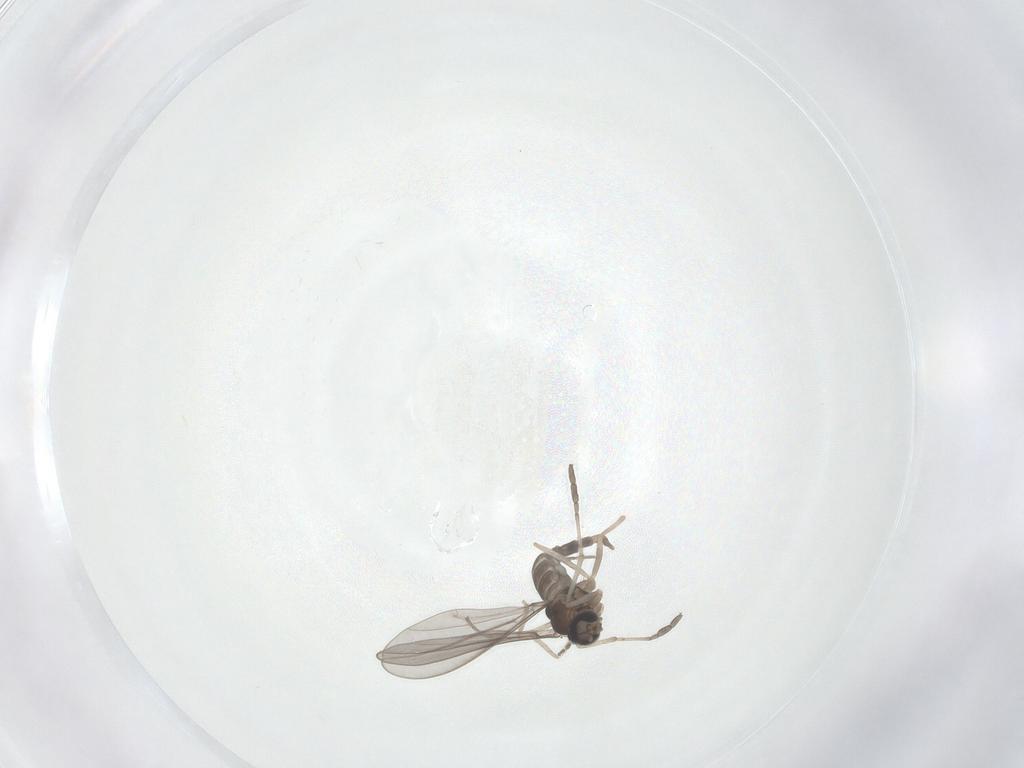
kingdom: Animalia
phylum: Arthropoda
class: Insecta
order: Diptera
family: Cecidomyiidae
